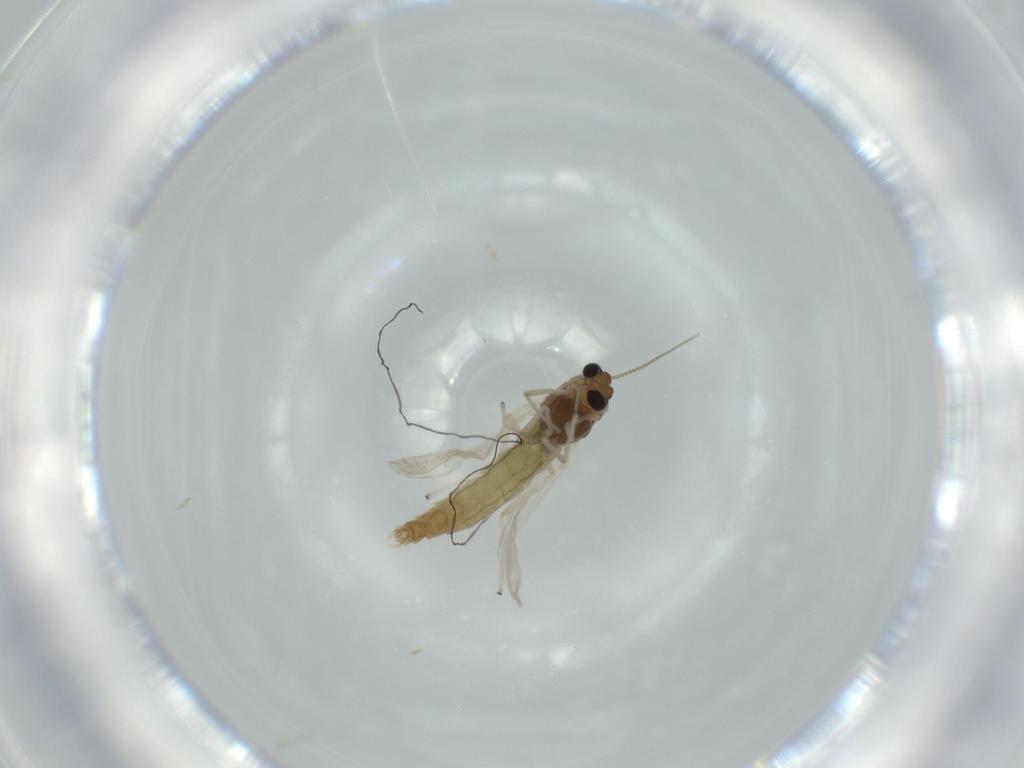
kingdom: Animalia
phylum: Arthropoda
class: Insecta
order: Diptera
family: Chironomidae
